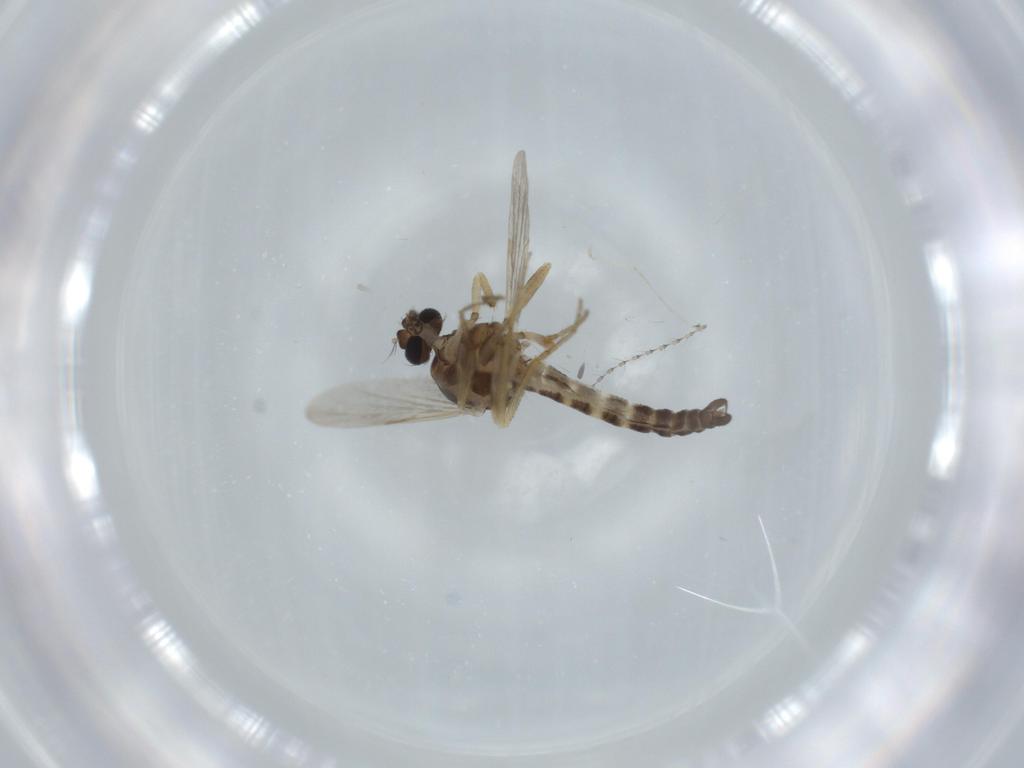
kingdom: Animalia
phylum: Arthropoda
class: Insecta
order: Diptera
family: Ceratopogonidae
